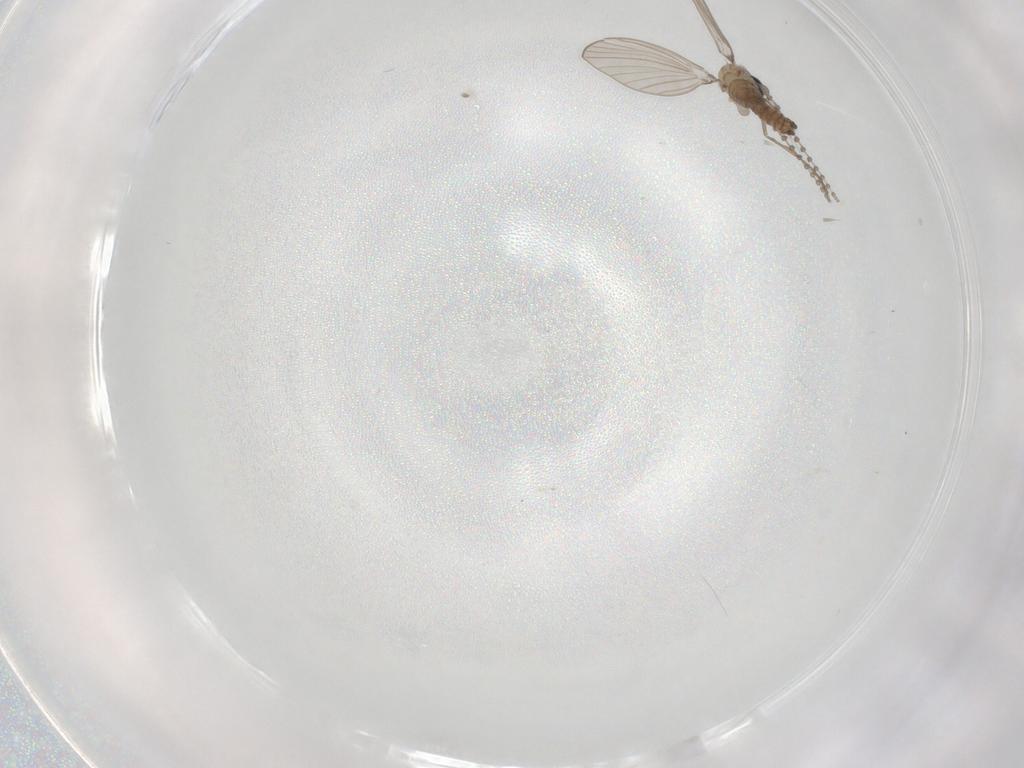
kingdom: Animalia
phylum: Arthropoda
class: Insecta
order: Diptera
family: Psychodidae
